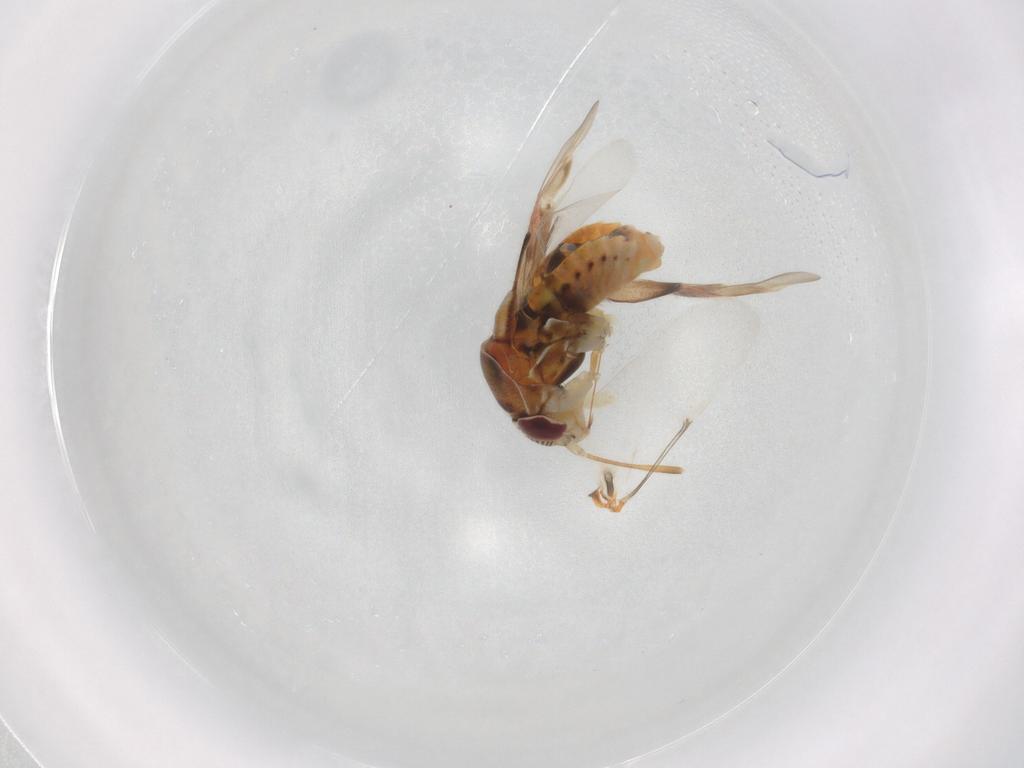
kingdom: Animalia
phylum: Arthropoda
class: Insecta
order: Hemiptera
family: Miridae
